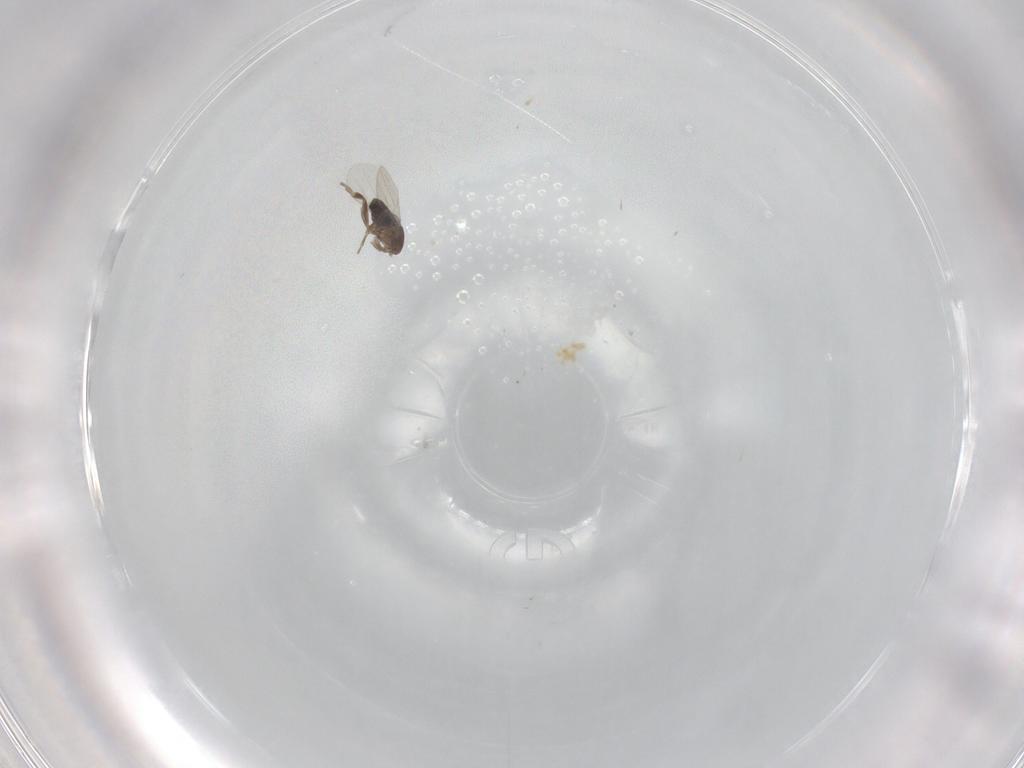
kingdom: Animalia
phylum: Arthropoda
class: Insecta
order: Diptera
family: Phoridae
